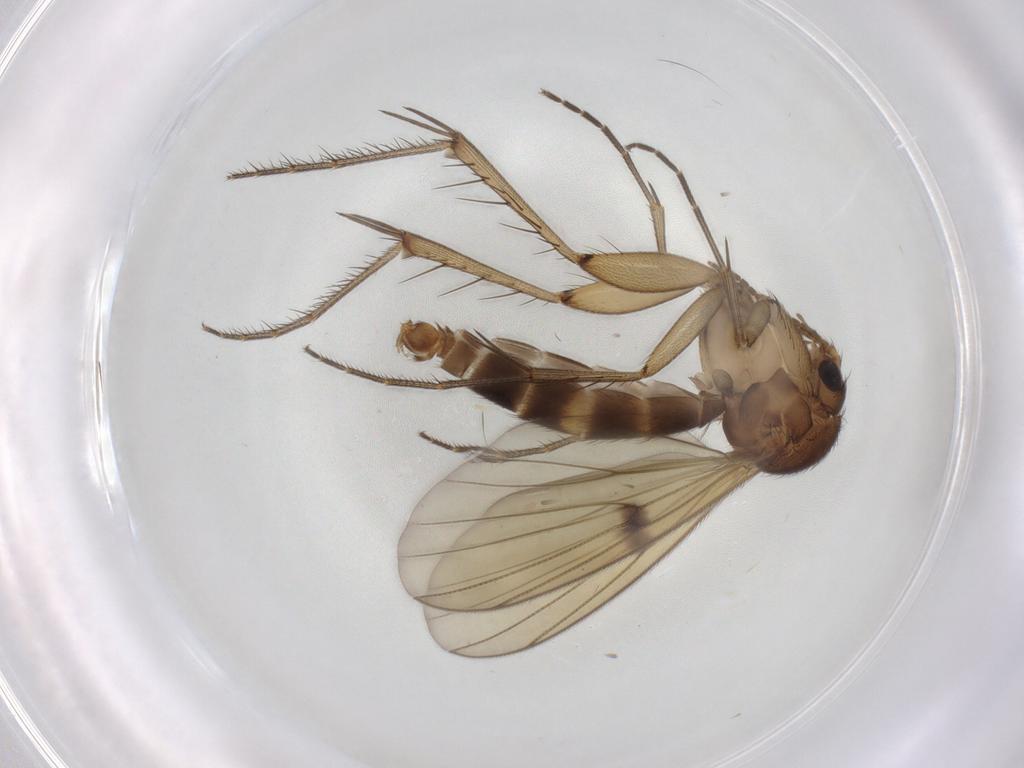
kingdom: Animalia
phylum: Arthropoda
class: Insecta
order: Diptera
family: Mycetophilidae
